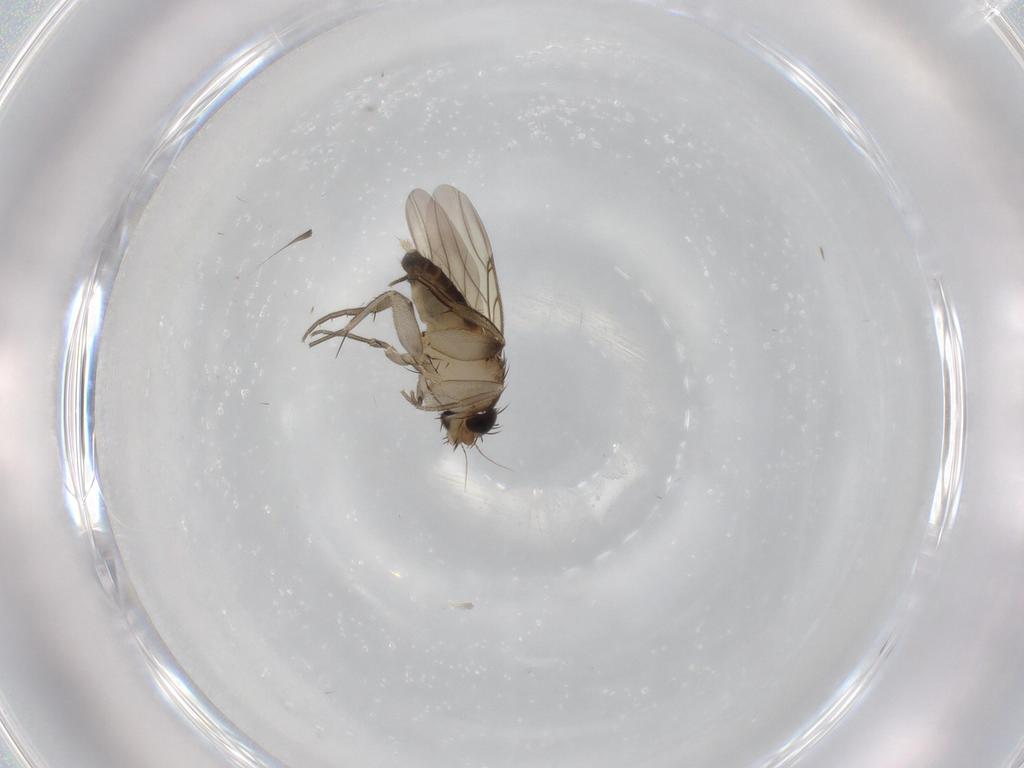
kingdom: Animalia
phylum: Arthropoda
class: Insecta
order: Diptera
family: Phoridae
